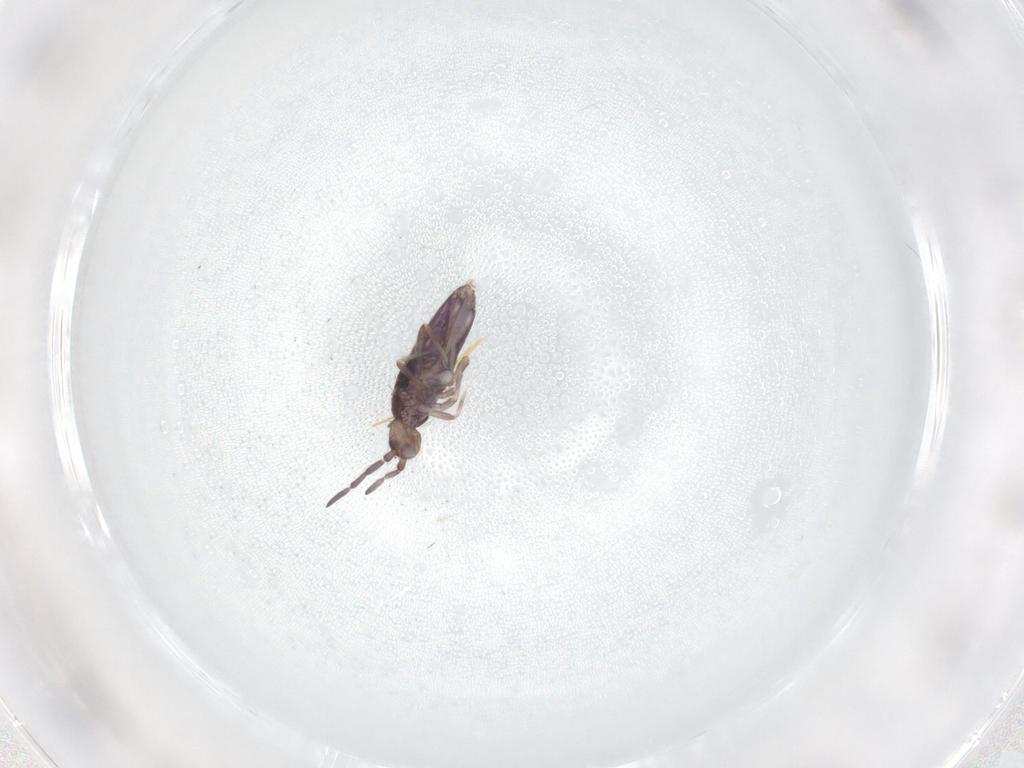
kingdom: Animalia
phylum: Arthropoda
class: Collembola
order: Entomobryomorpha
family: Entomobryidae
